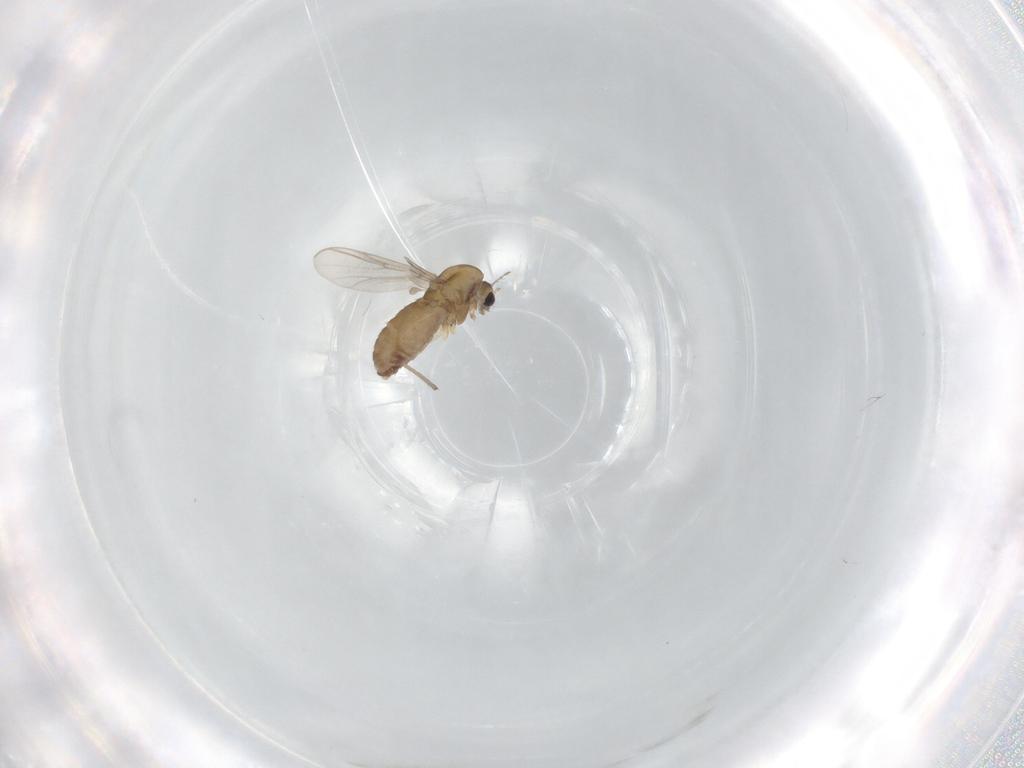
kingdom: Animalia
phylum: Arthropoda
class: Insecta
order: Diptera
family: Chironomidae
